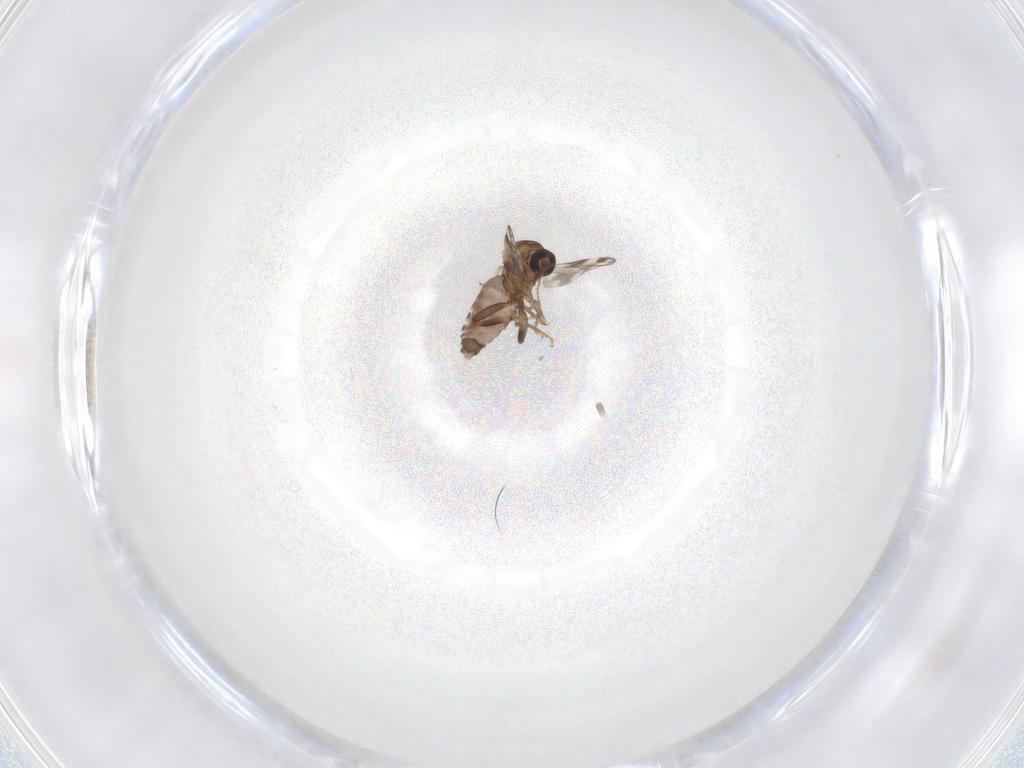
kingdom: Animalia
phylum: Arthropoda
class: Insecta
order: Diptera
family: Ceratopogonidae
